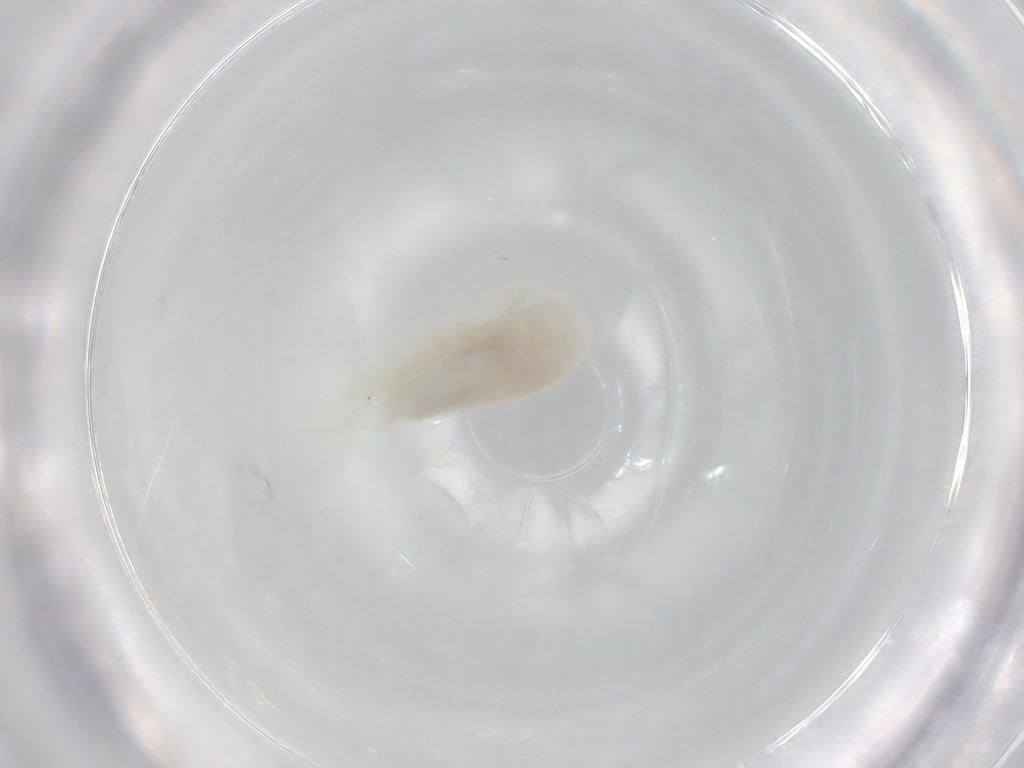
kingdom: Animalia
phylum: Arthropoda
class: Copepoda
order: Calanoida
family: Diaptomidae
